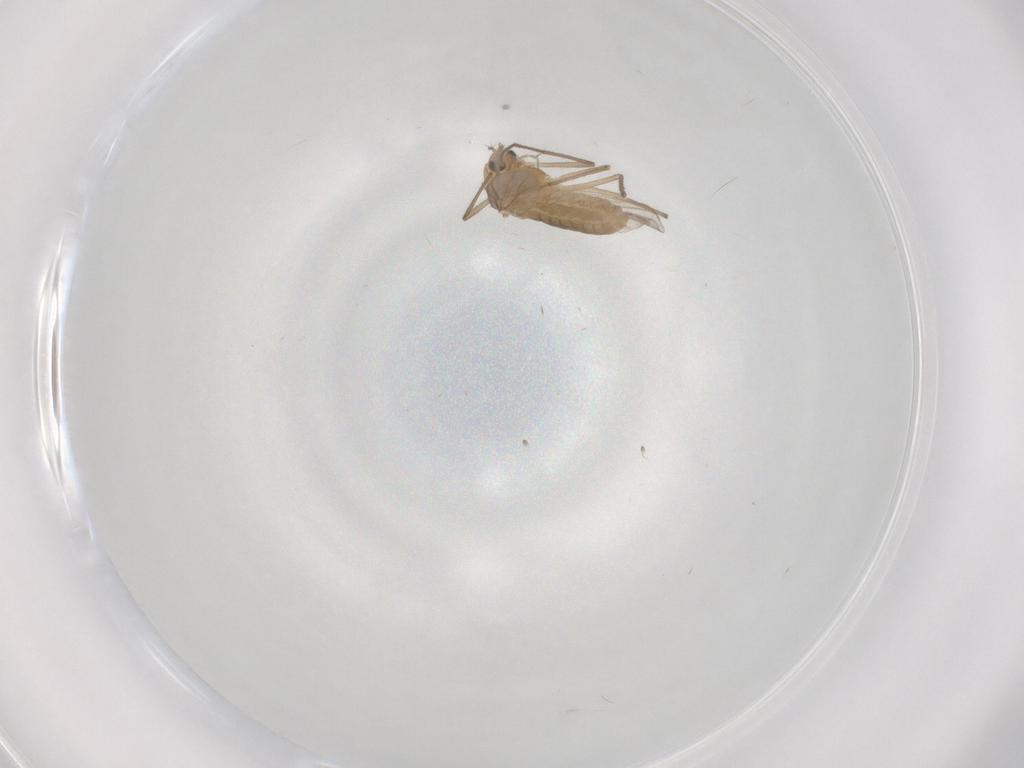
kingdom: Animalia
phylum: Arthropoda
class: Insecta
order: Diptera
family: Chironomidae
